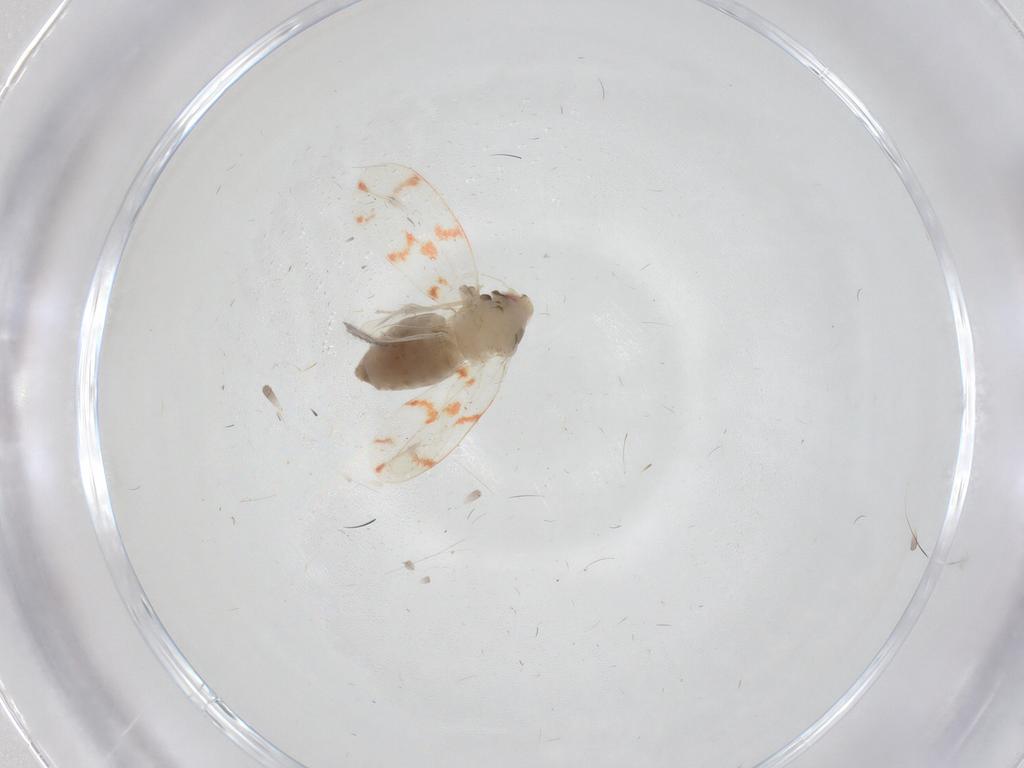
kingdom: Animalia
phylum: Arthropoda
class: Insecta
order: Hemiptera
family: Aleyrodidae
